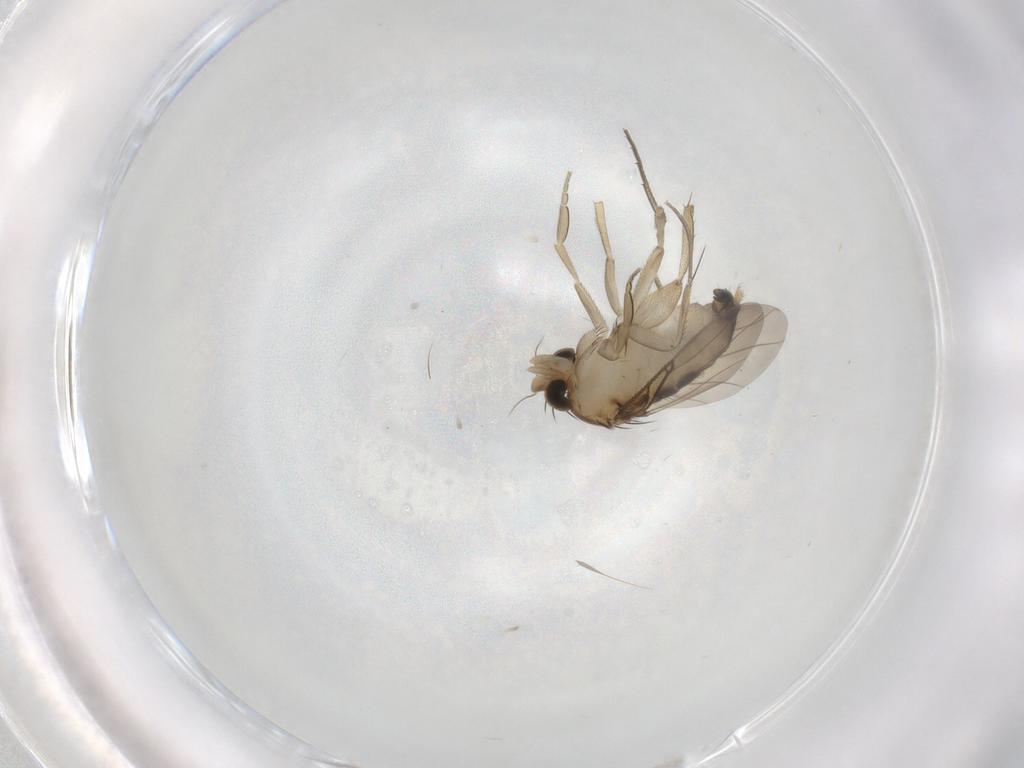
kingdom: Animalia
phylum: Arthropoda
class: Insecta
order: Diptera
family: Phoridae
